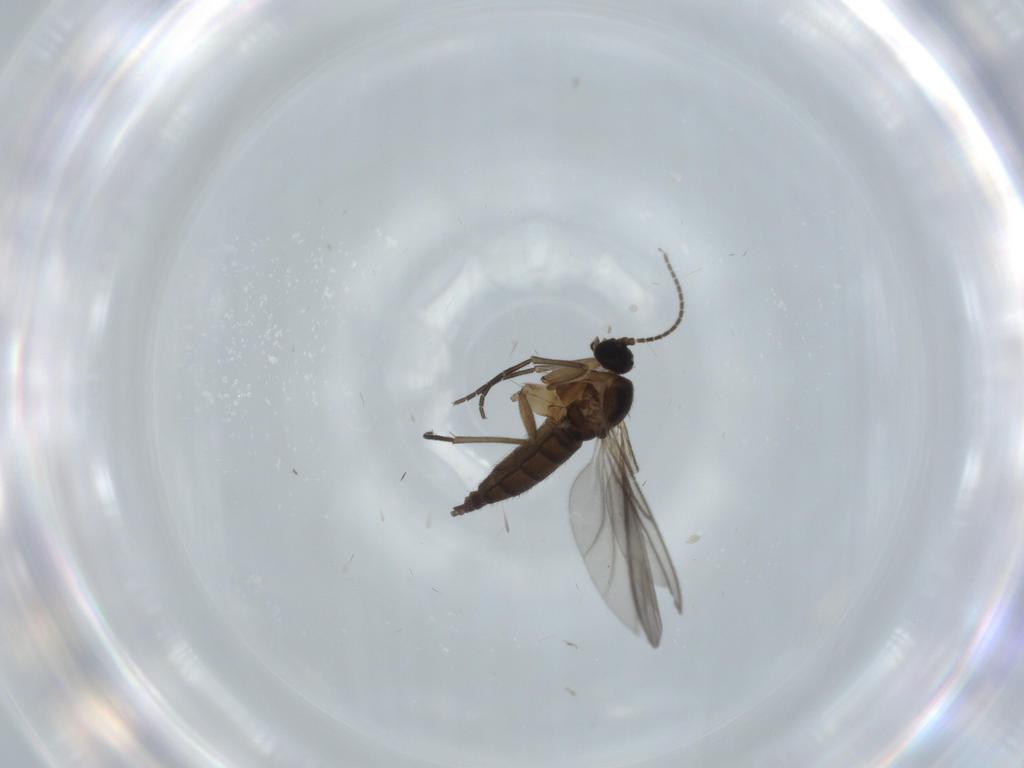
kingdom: Animalia
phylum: Arthropoda
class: Insecta
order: Diptera
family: Sciaridae
